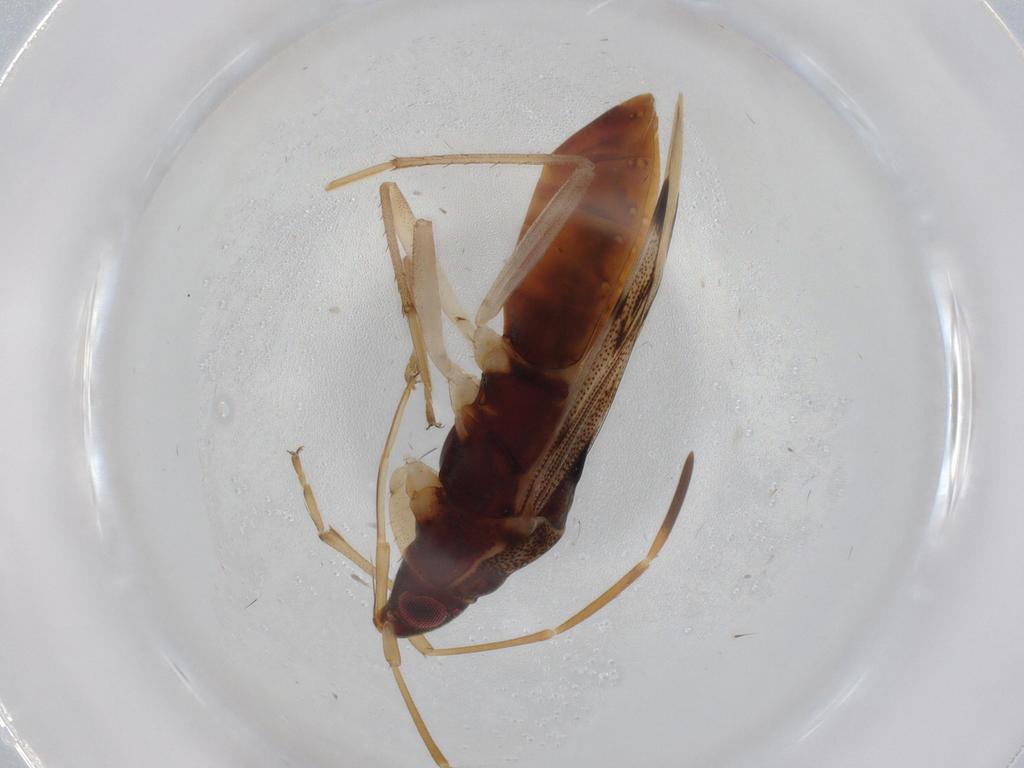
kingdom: Animalia
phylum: Arthropoda
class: Insecta
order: Hemiptera
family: Rhyparochromidae
